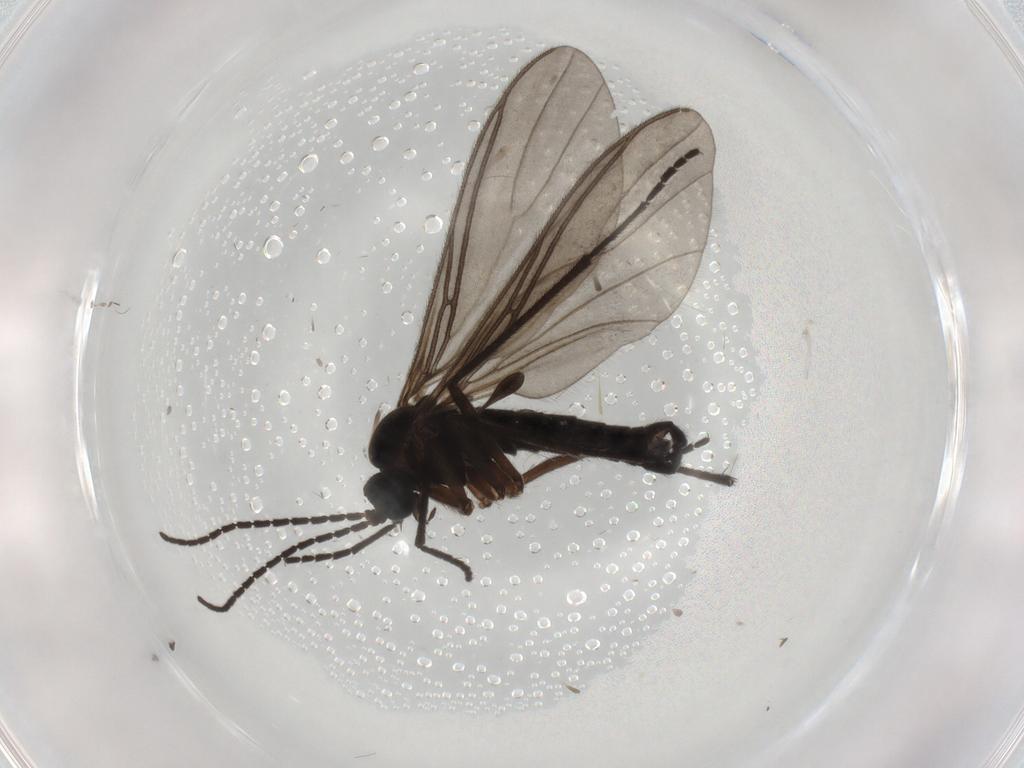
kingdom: Animalia
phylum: Arthropoda
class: Insecta
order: Diptera
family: Sciaridae
